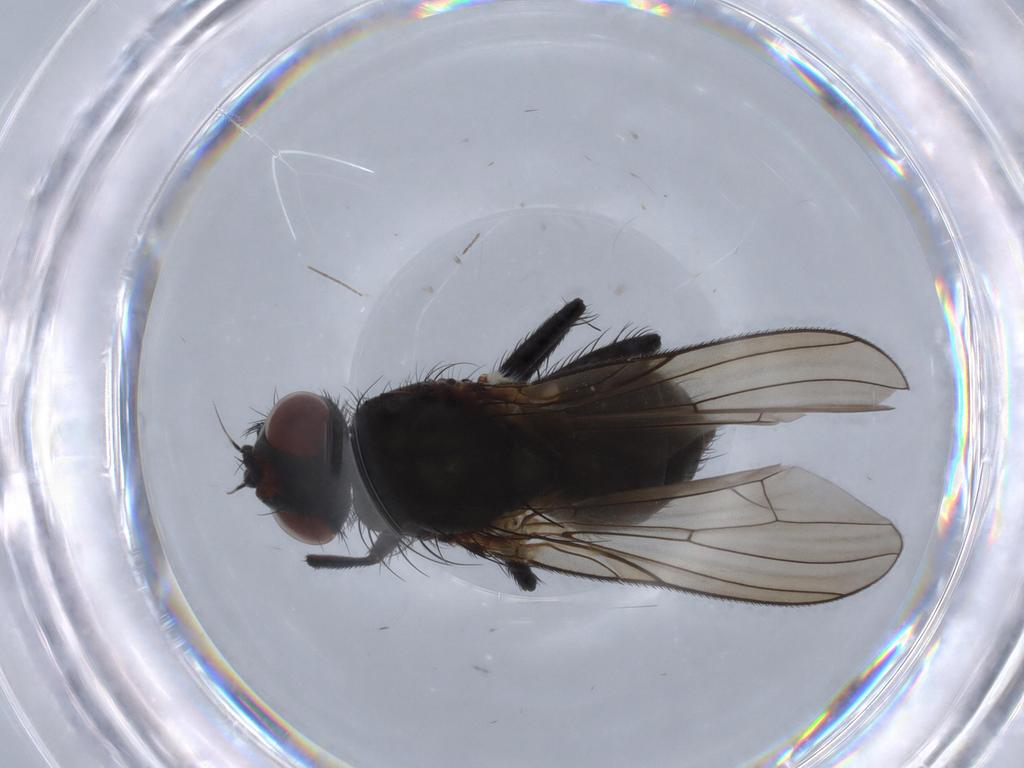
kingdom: Animalia
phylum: Arthropoda
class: Insecta
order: Diptera
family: Anthomyiidae
